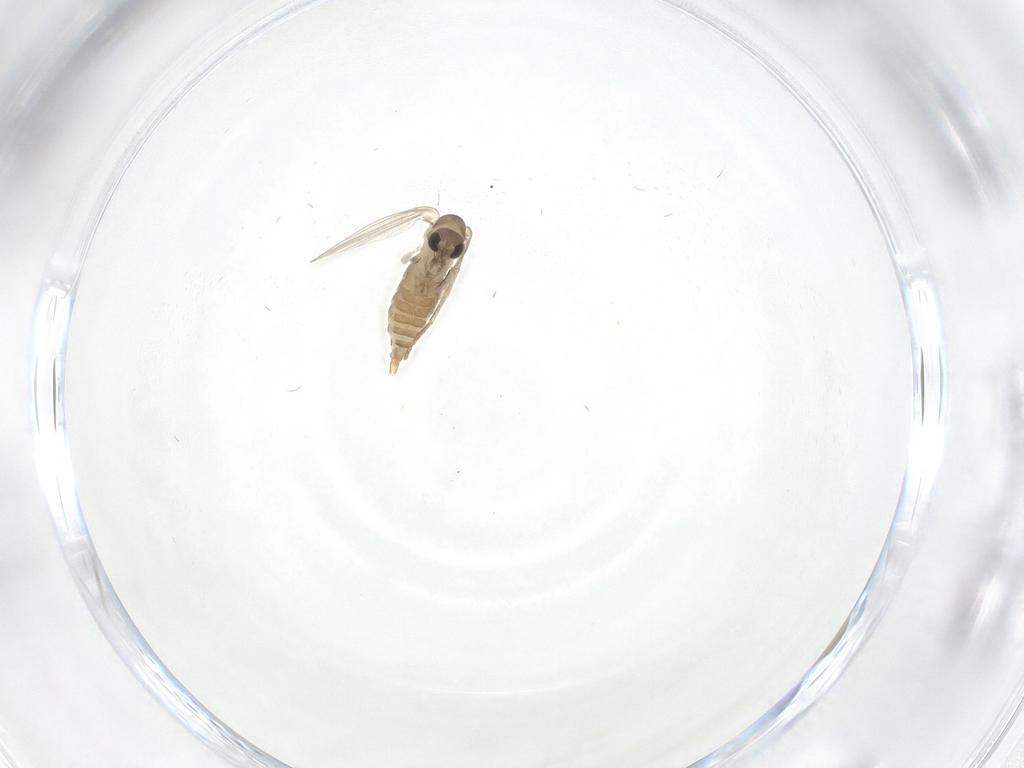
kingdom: Animalia
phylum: Arthropoda
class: Insecta
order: Diptera
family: Psychodidae
